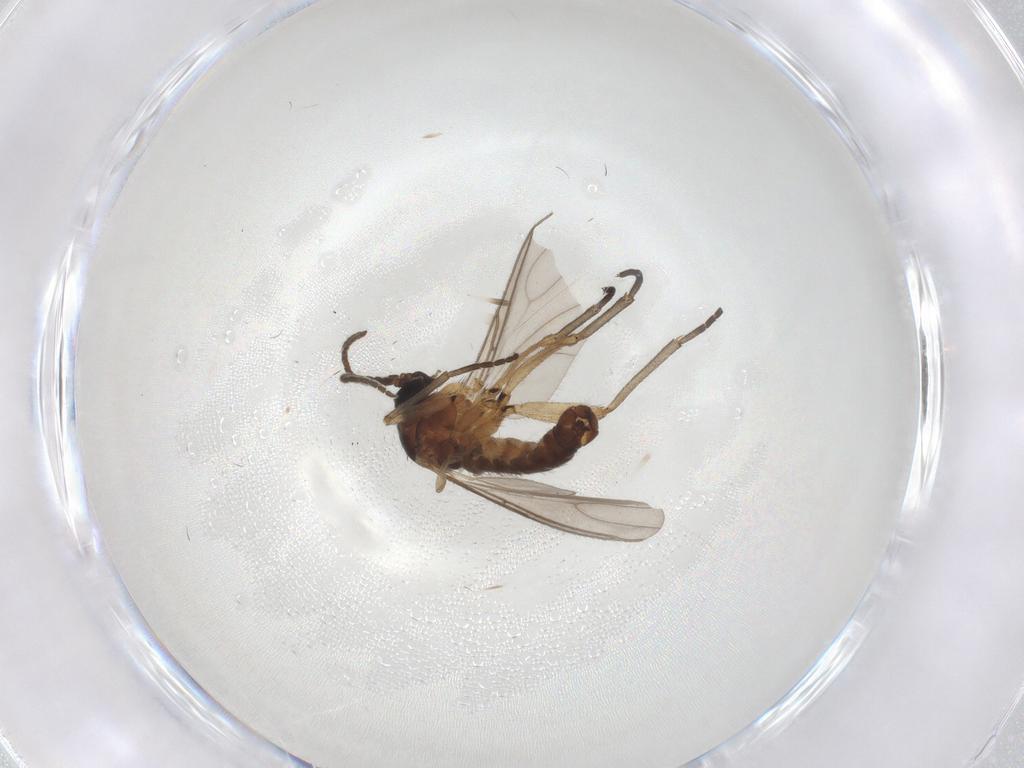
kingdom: Animalia
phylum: Arthropoda
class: Insecta
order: Diptera
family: Sciaridae
